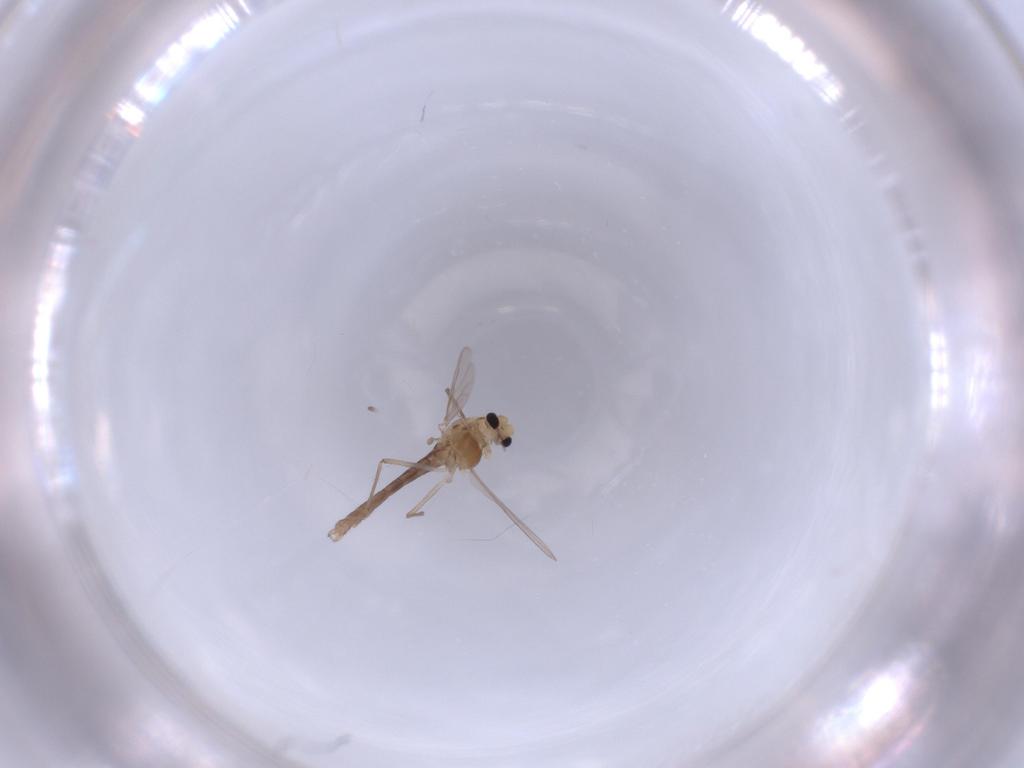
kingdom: Animalia
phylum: Arthropoda
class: Insecta
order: Diptera
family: Chironomidae
